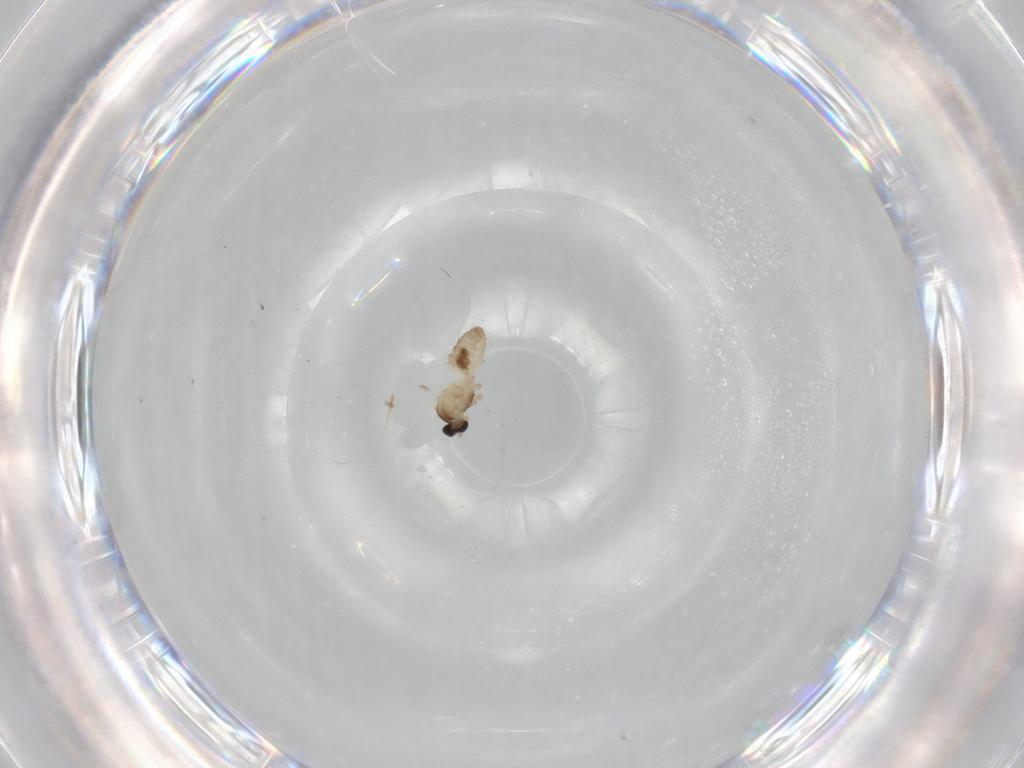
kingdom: Animalia
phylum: Arthropoda
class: Insecta
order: Diptera
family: Cecidomyiidae
